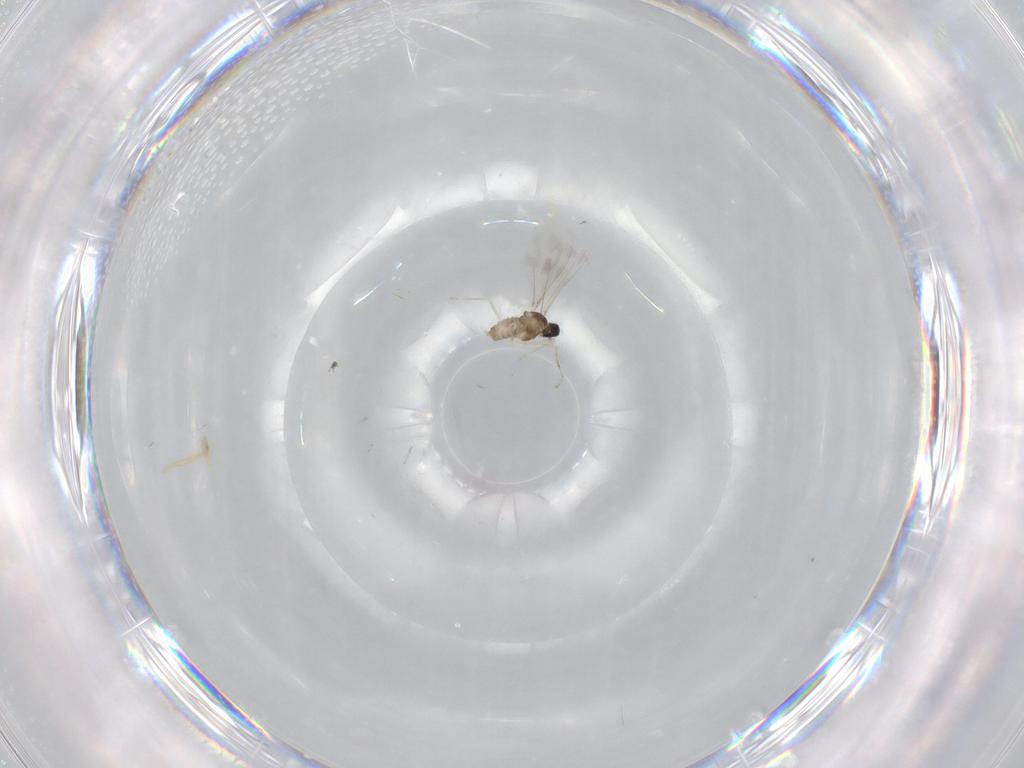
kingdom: Animalia
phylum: Arthropoda
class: Insecta
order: Diptera
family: Cecidomyiidae
